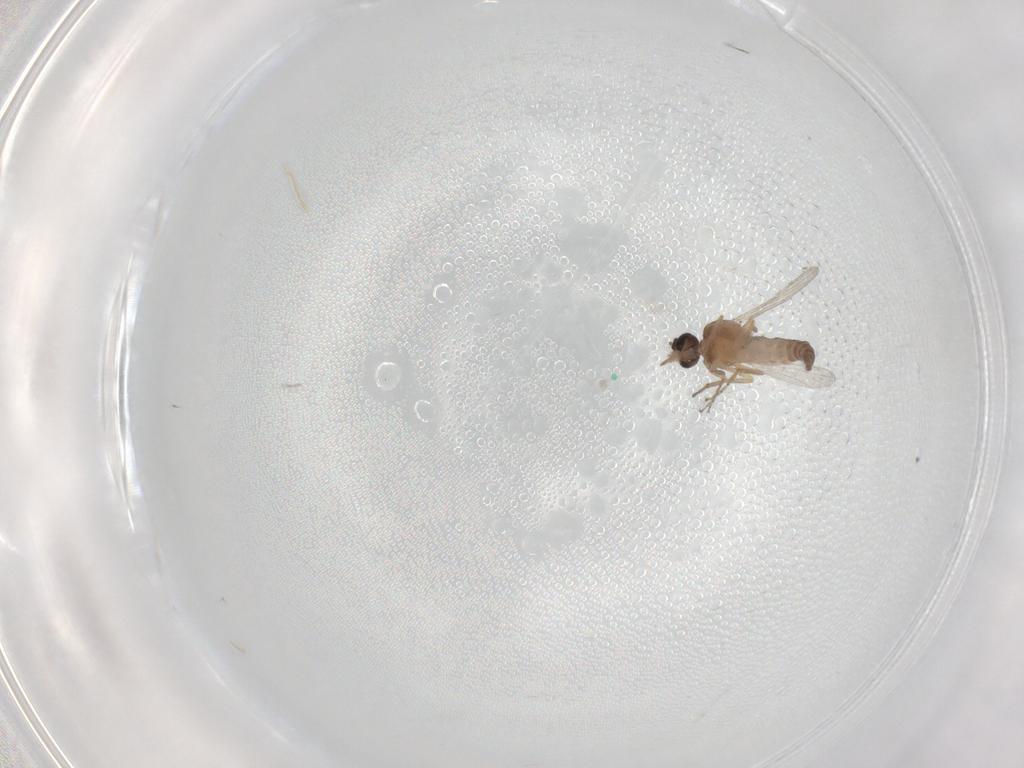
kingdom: Animalia
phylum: Arthropoda
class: Insecta
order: Diptera
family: Ceratopogonidae
